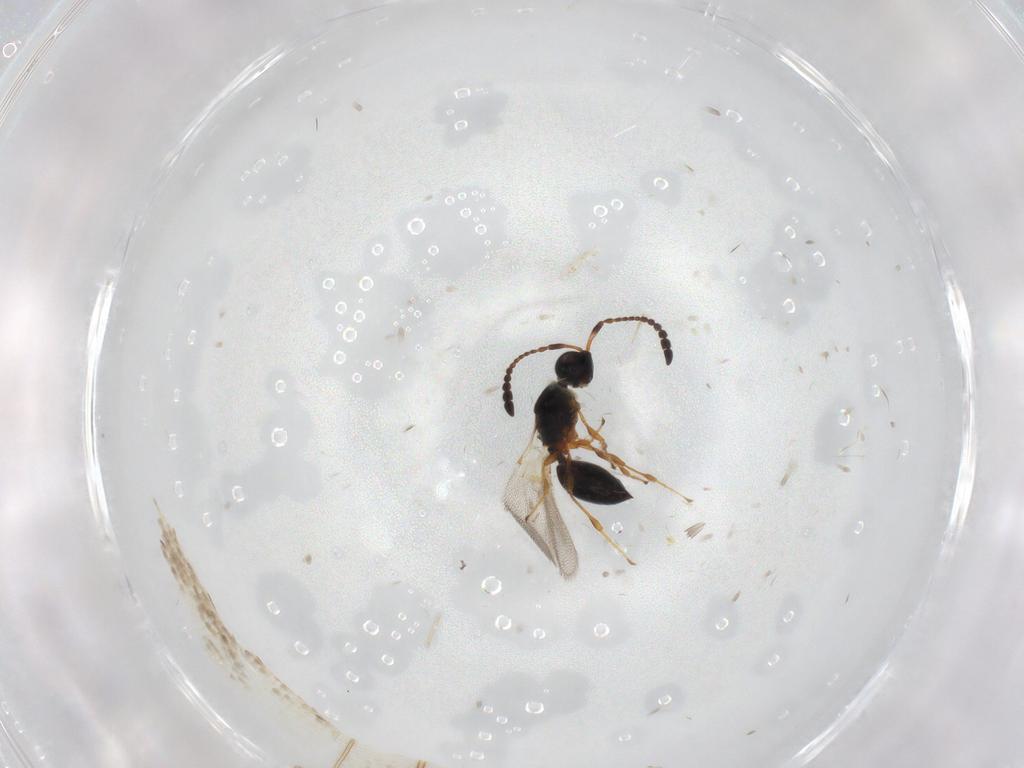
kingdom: Animalia
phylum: Arthropoda
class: Insecta
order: Hymenoptera
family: Diapriidae
